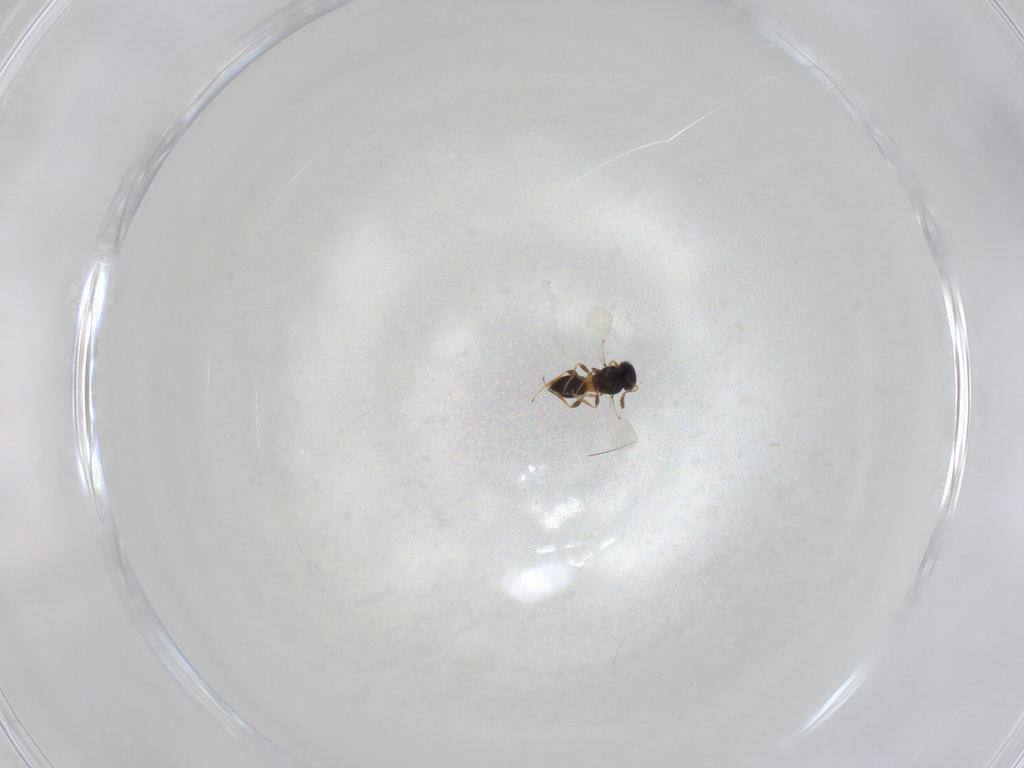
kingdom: Animalia
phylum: Arthropoda
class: Insecta
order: Hymenoptera
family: Platygastridae
